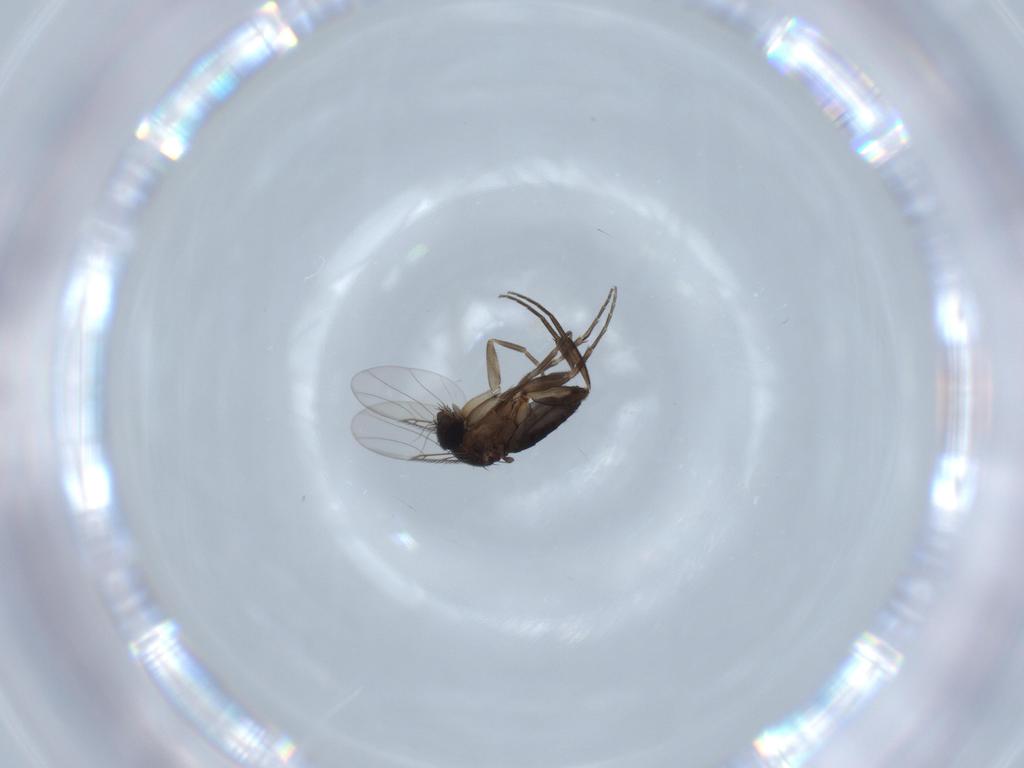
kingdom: Animalia
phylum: Arthropoda
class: Insecta
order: Diptera
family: Phoridae
